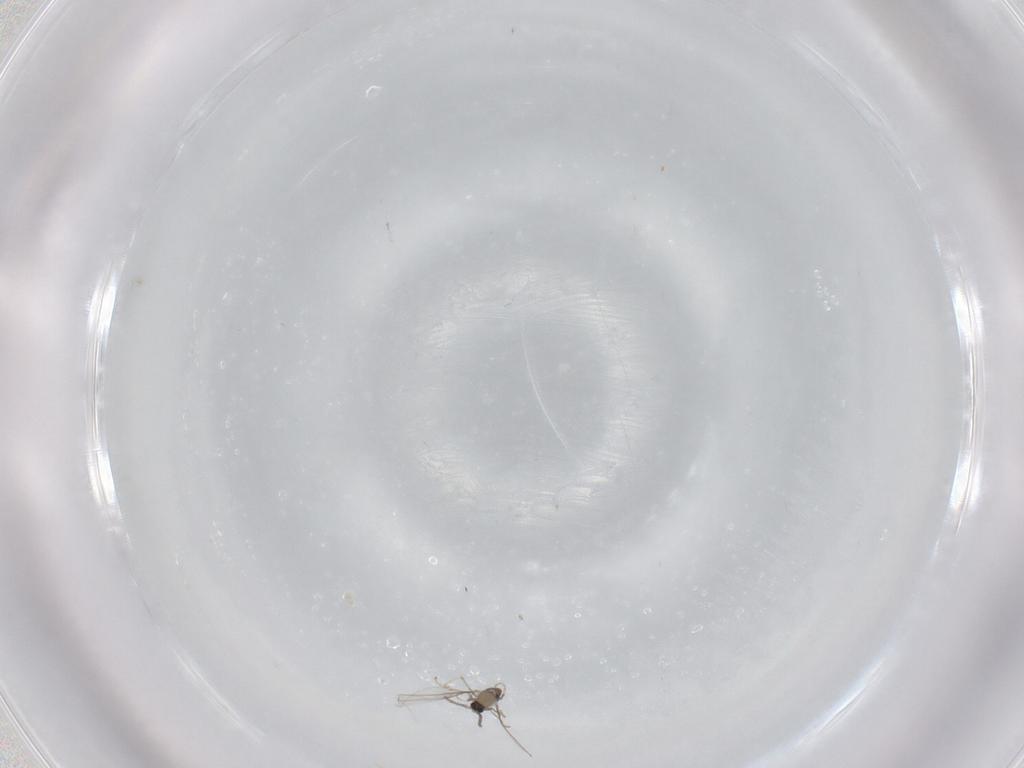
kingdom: Animalia
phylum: Arthropoda
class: Insecta
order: Diptera
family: Cecidomyiidae
